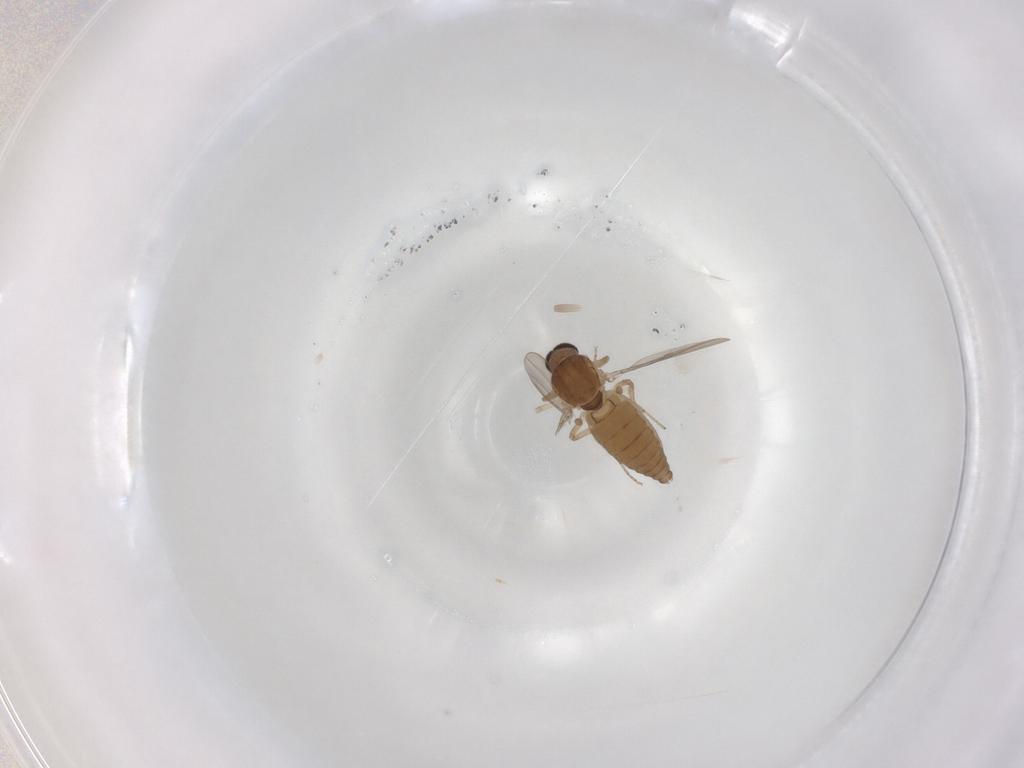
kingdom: Animalia
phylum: Arthropoda
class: Insecta
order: Diptera
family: Ceratopogonidae
